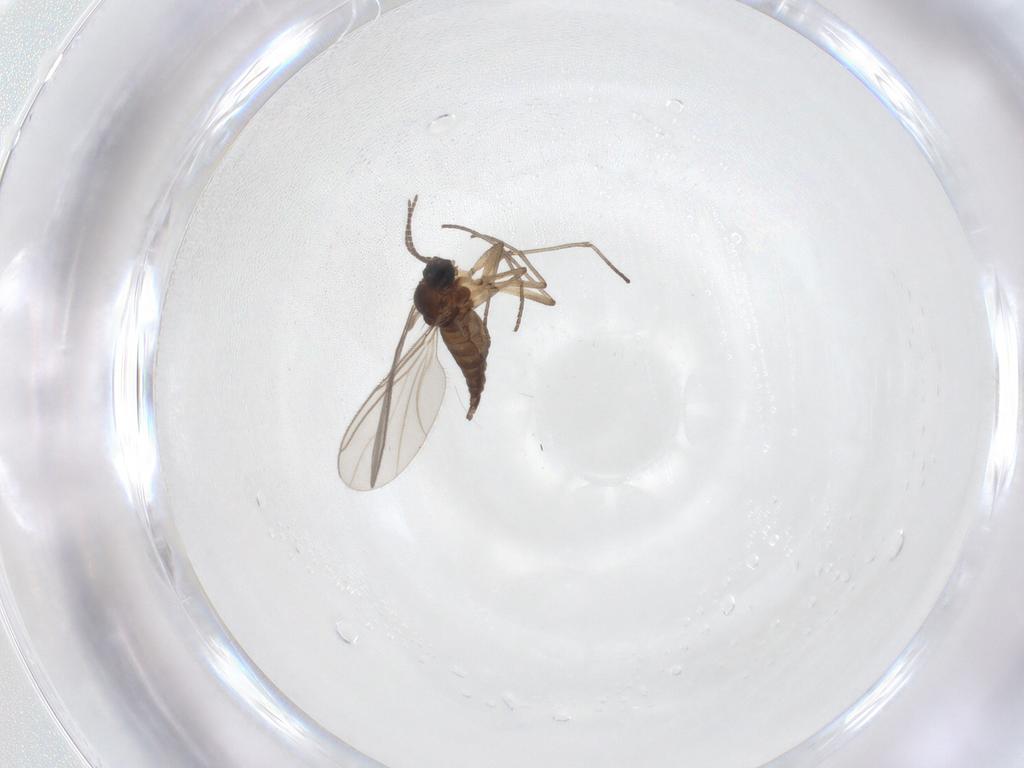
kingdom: Animalia
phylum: Arthropoda
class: Insecta
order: Diptera
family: Sciaridae
